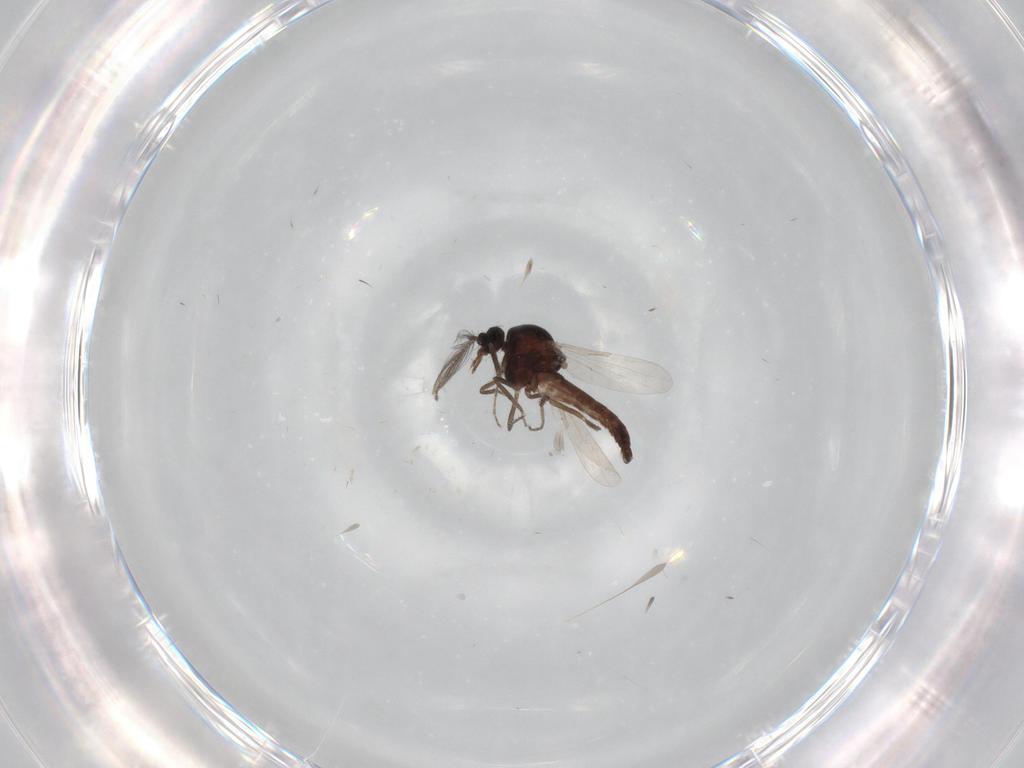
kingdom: Animalia
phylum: Arthropoda
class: Insecta
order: Diptera
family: Ceratopogonidae
